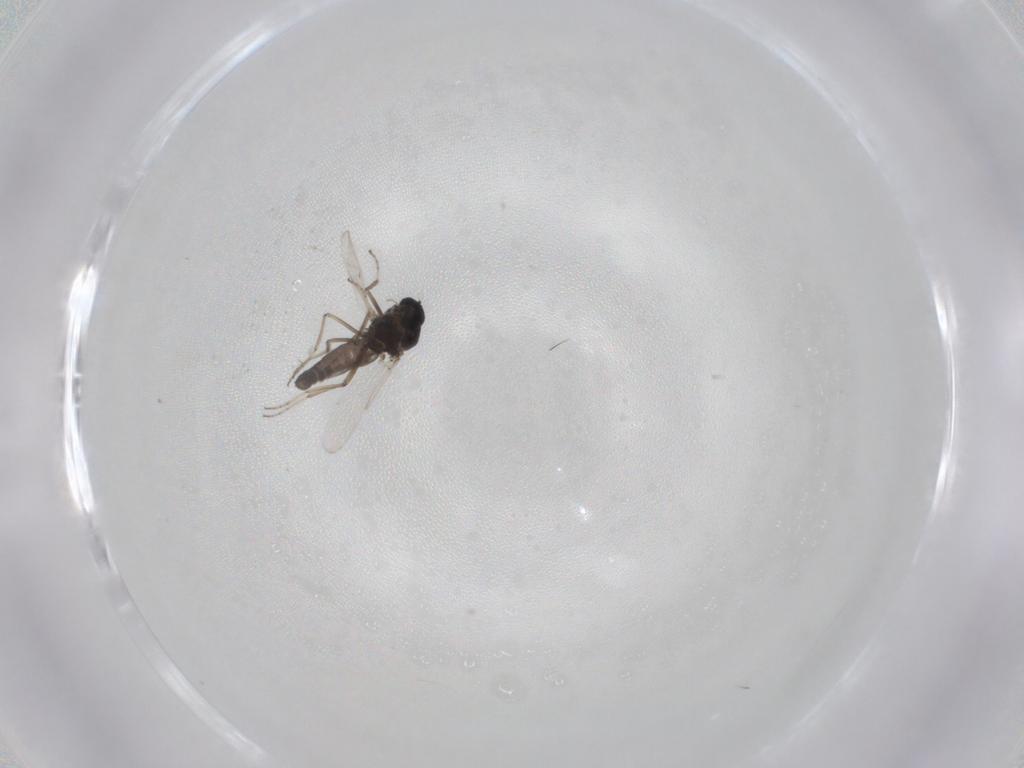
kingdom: Animalia
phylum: Arthropoda
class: Insecta
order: Diptera
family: Ceratopogonidae
